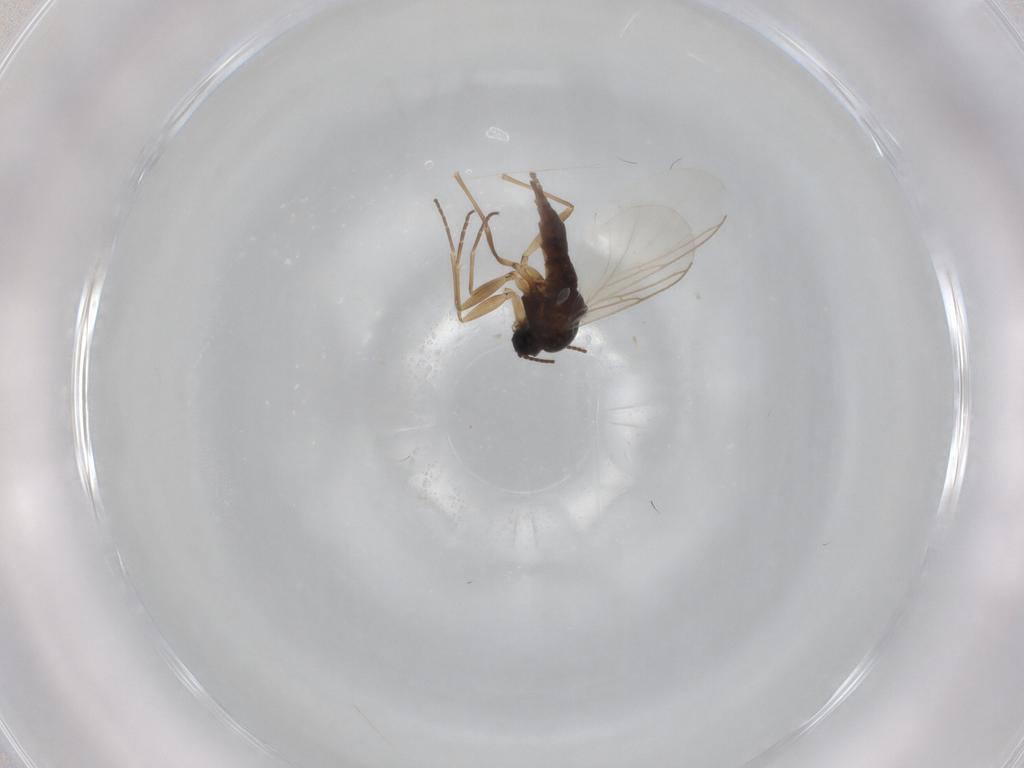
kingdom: Animalia
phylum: Arthropoda
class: Insecta
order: Diptera
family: Sciaridae
